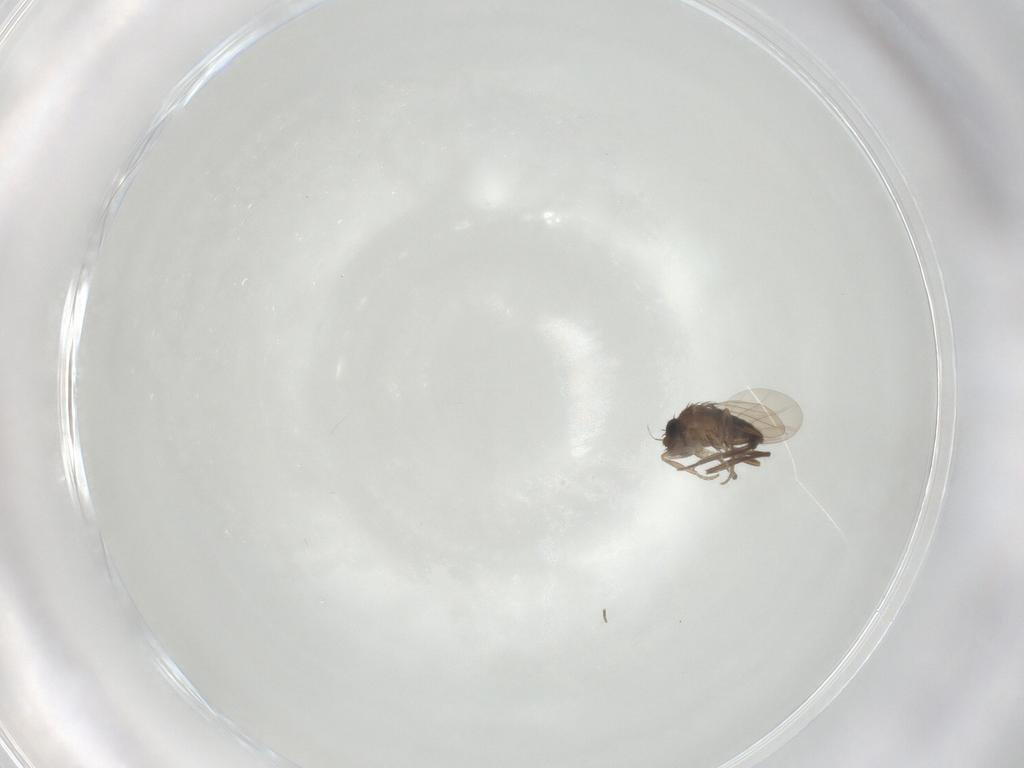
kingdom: Animalia
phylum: Arthropoda
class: Insecta
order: Diptera
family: Phoridae
